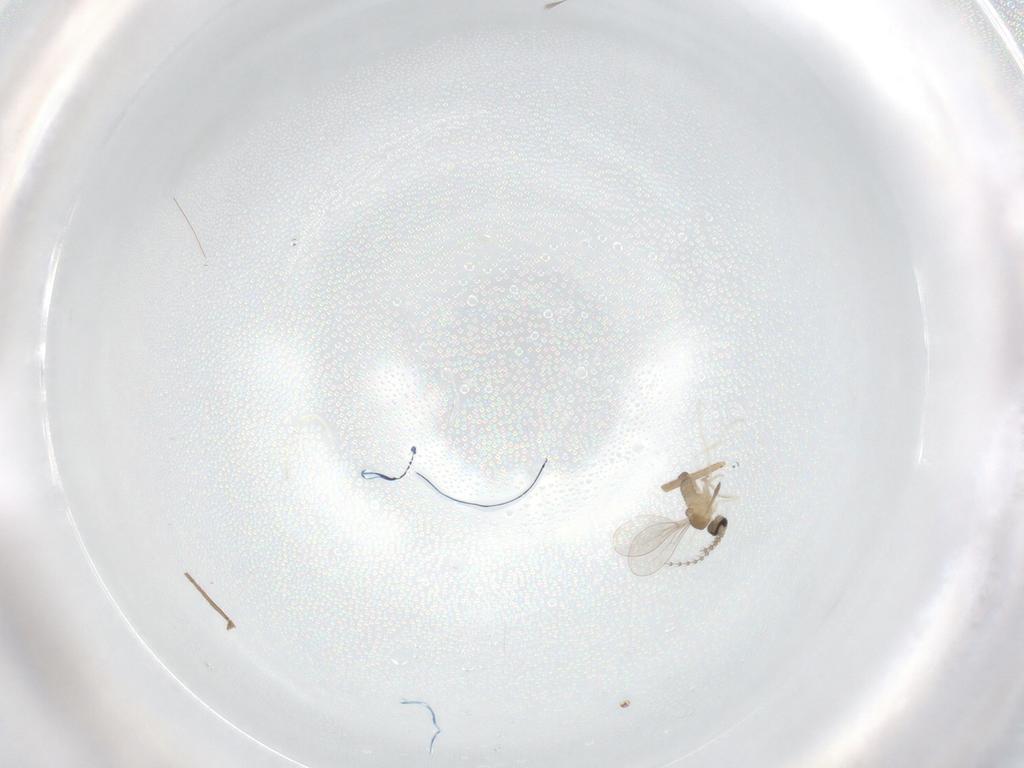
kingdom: Animalia
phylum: Arthropoda
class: Insecta
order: Diptera
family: Cecidomyiidae
